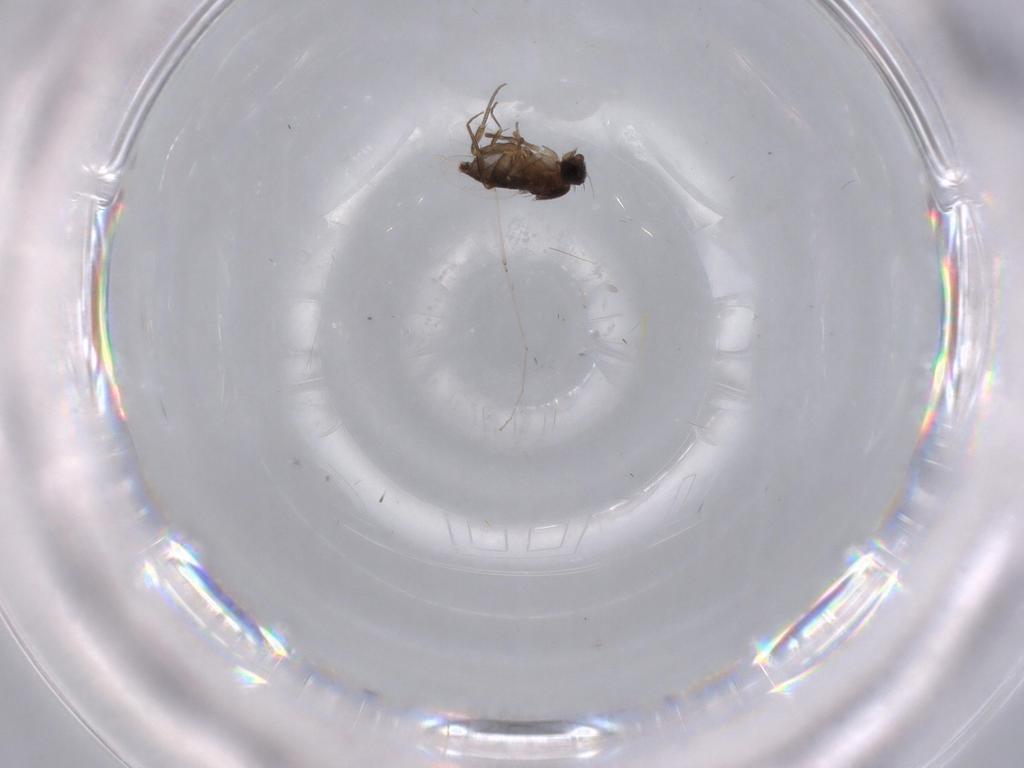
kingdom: Animalia
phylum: Arthropoda
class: Insecta
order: Diptera
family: Phoridae
